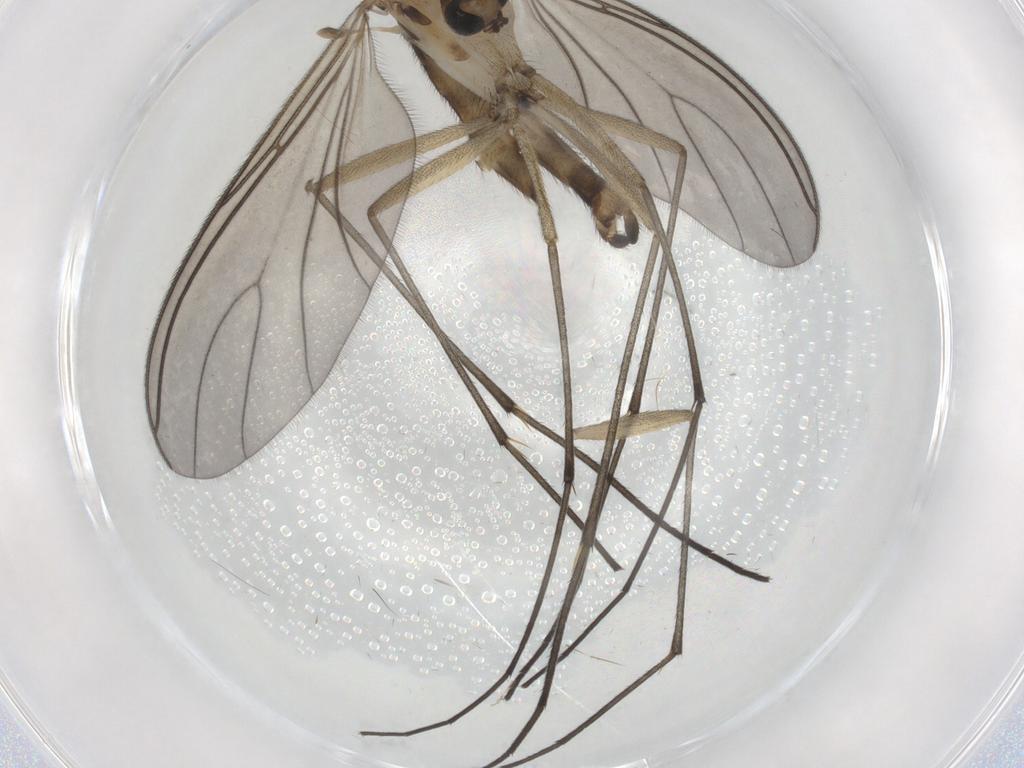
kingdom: Animalia
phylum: Arthropoda
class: Insecta
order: Diptera
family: Sciaridae
